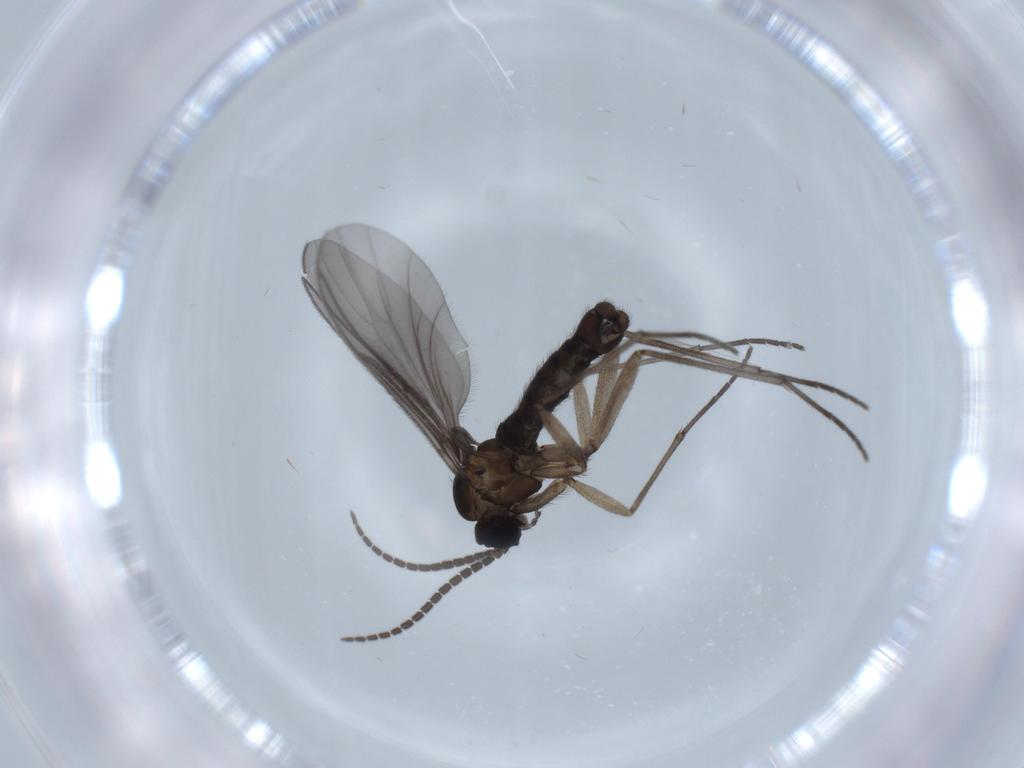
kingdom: Animalia
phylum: Arthropoda
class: Insecta
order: Diptera
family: Sciaridae
